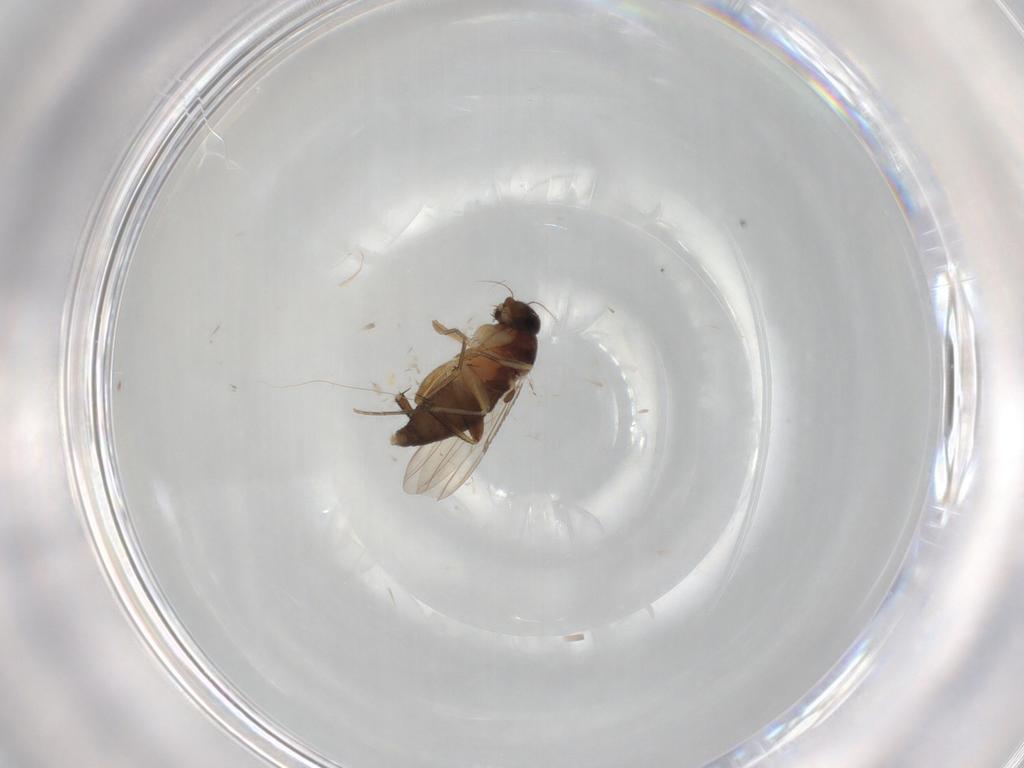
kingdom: Animalia
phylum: Arthropoda
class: Insecta
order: Diptera
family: Phoridae
